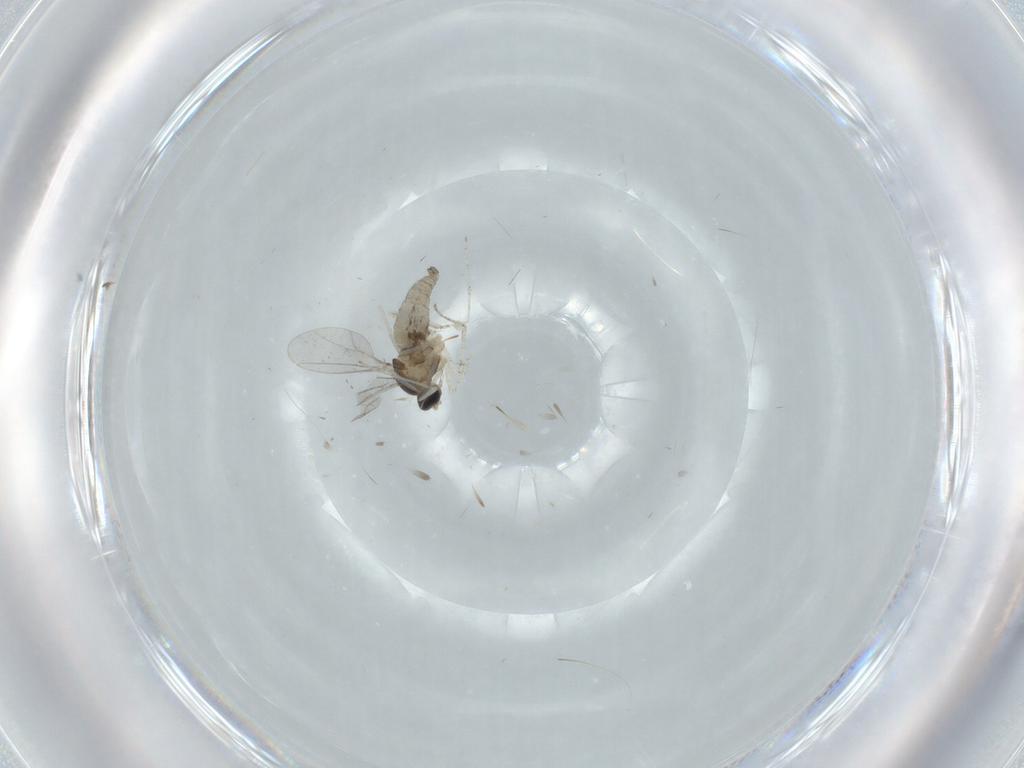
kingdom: Animalia
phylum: Arthropoda
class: Insecta
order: Diptera
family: Cecidomyiidae
